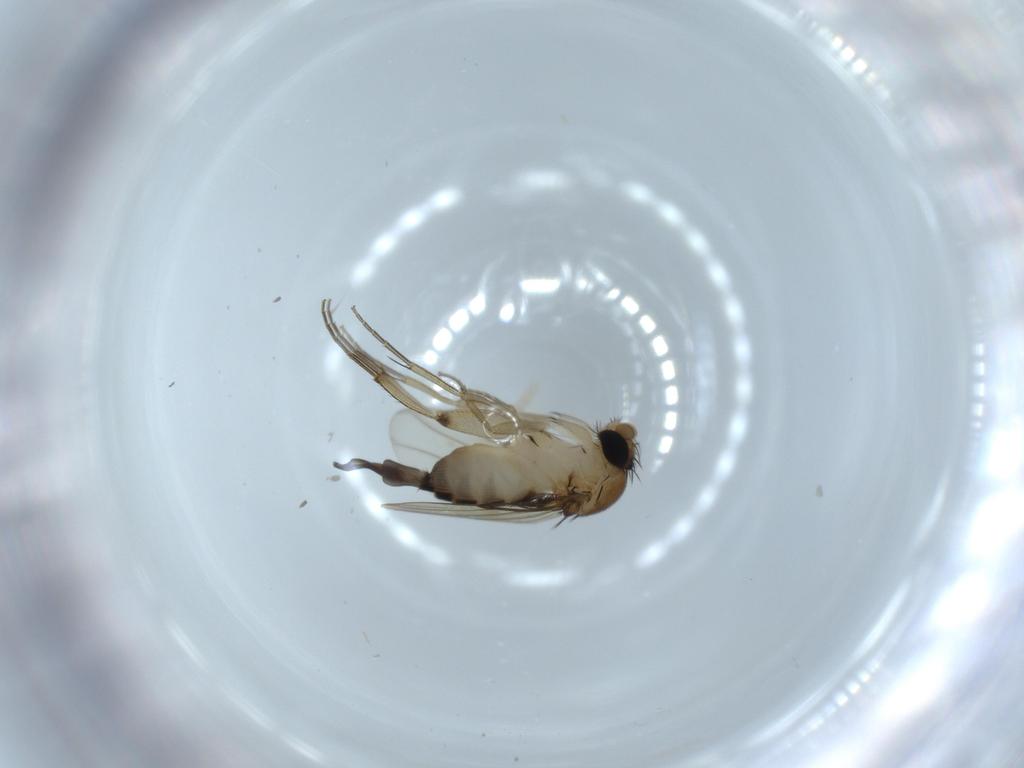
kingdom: Animalia
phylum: Arthropoda
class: Insecta
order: Diptera
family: Phoridae
